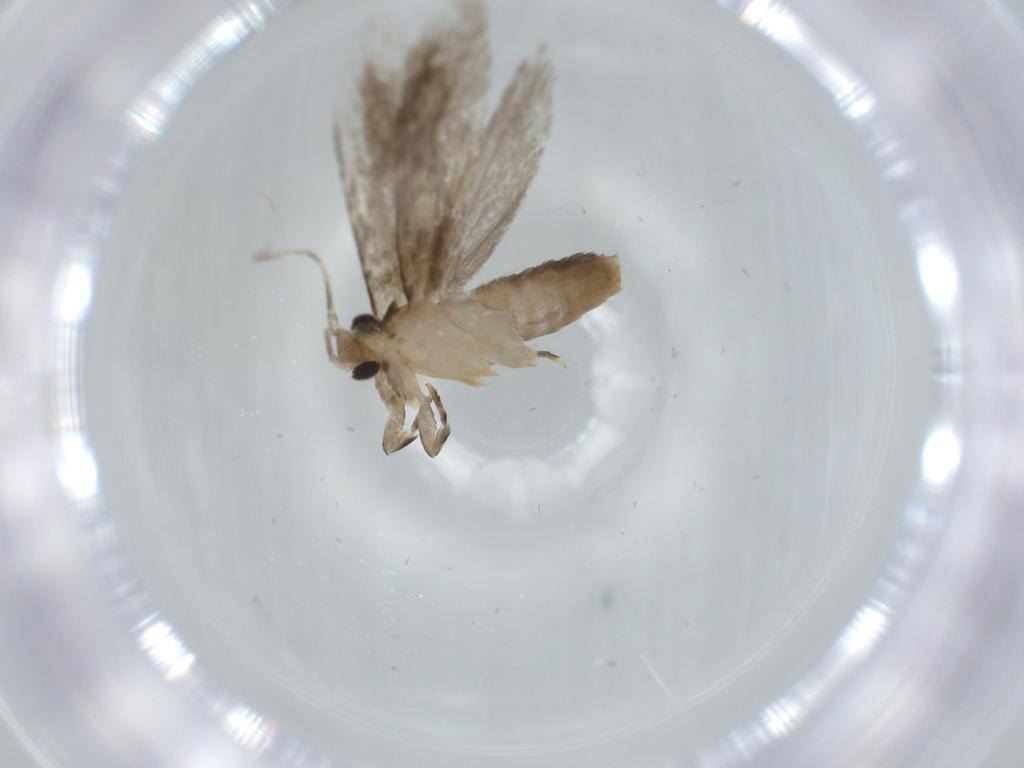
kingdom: Animalia
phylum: Arthropoda
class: Insecta
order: Lepidoptera
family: Tineidae
